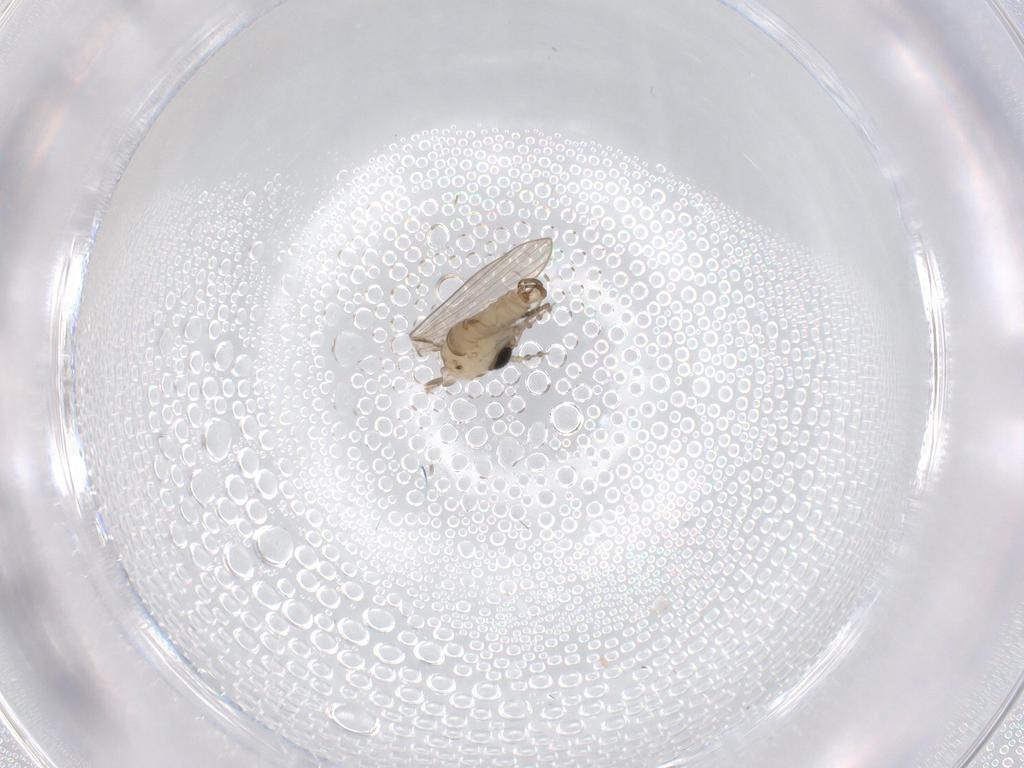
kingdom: Animalia
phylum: Arthropoda
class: Insecta
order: Diptera
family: Psychodidae
